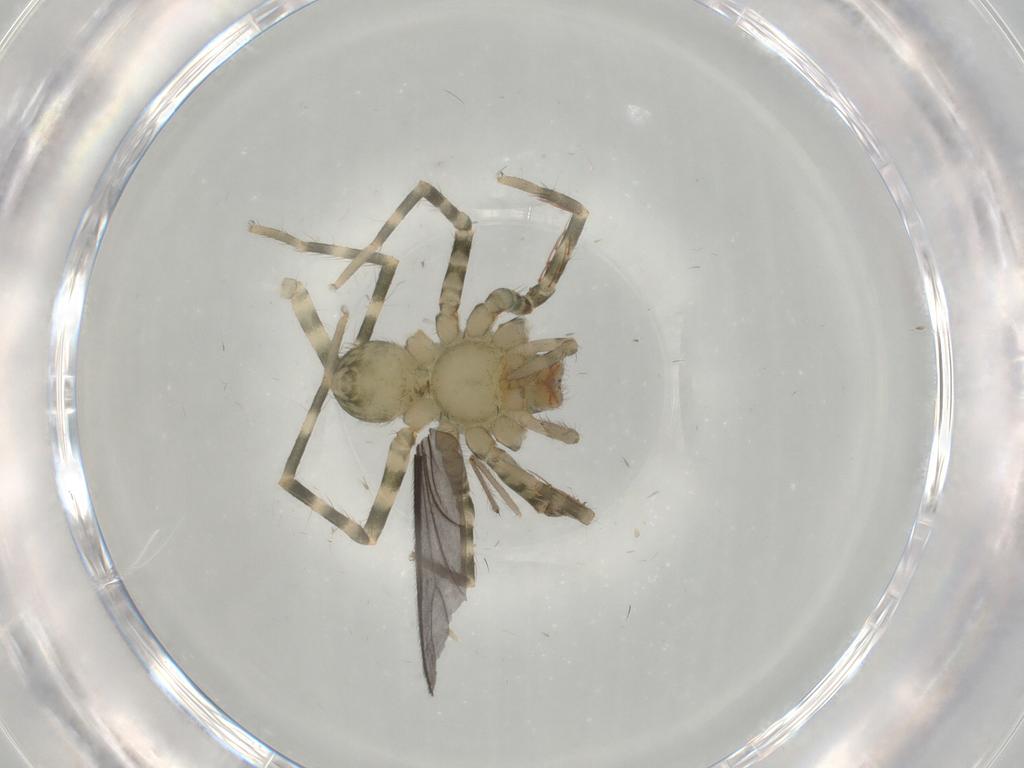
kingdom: Animalia
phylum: Arthropoda
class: Arachnida
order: Araneae
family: Ctenidae
